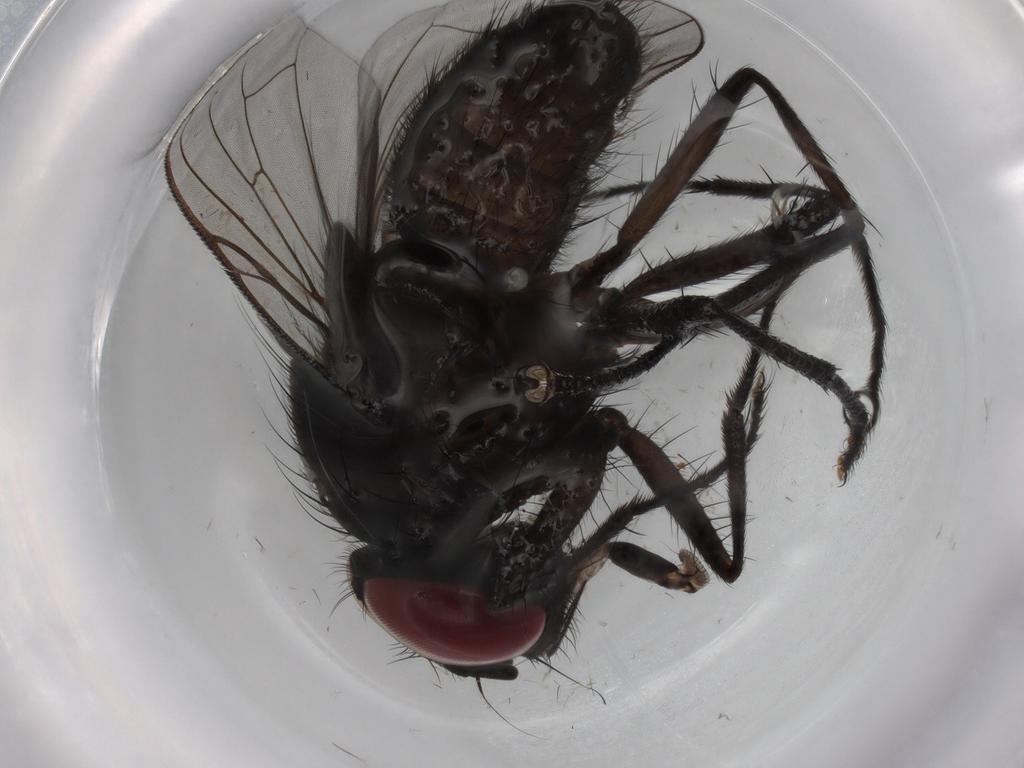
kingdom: Animalia
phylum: Arthropoda
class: Insecta
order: Diptera
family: Muscidae
